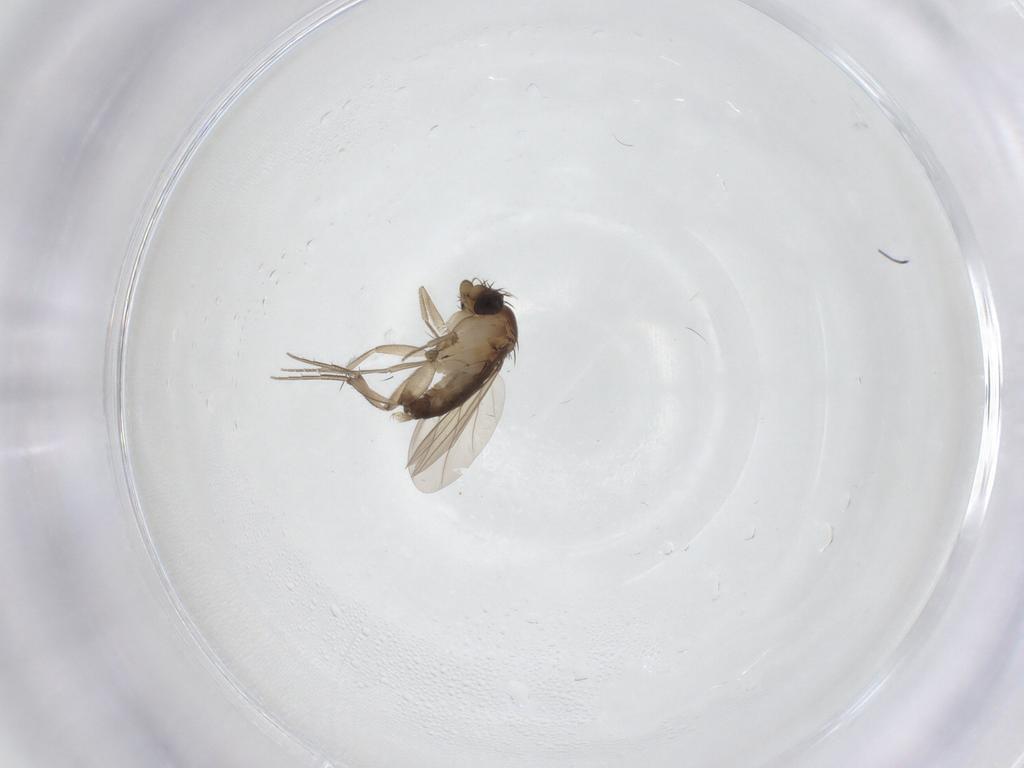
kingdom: Animalia
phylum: Arthropoda
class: Insecta
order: Diptera
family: Phoridae
